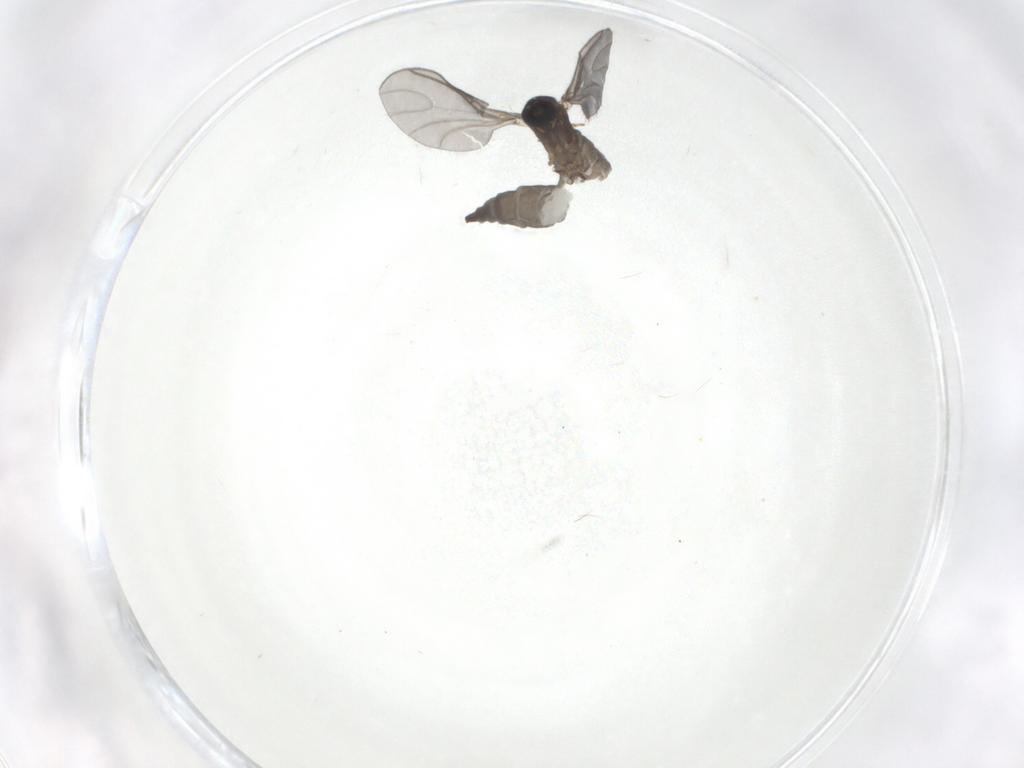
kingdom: Animalia
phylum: Arthropoda
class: Insecta
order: Diptera
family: Sciaridae
